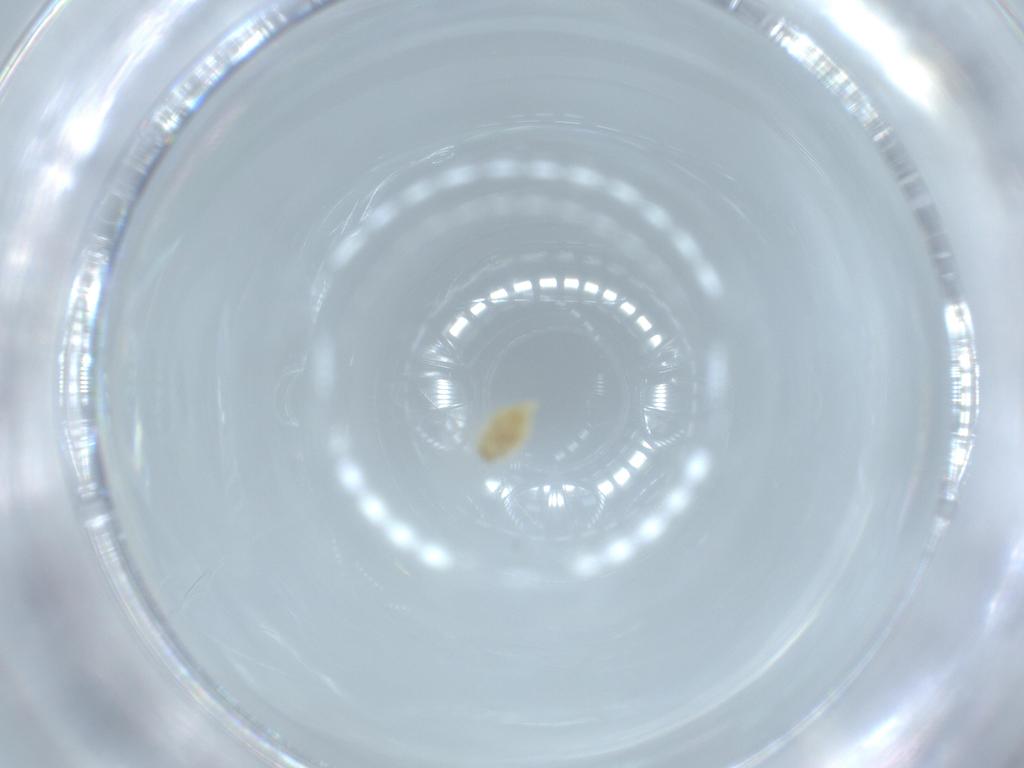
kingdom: Animalia
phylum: Arthropoda
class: Insecta
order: Neuroptera
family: Coniopterygidae
